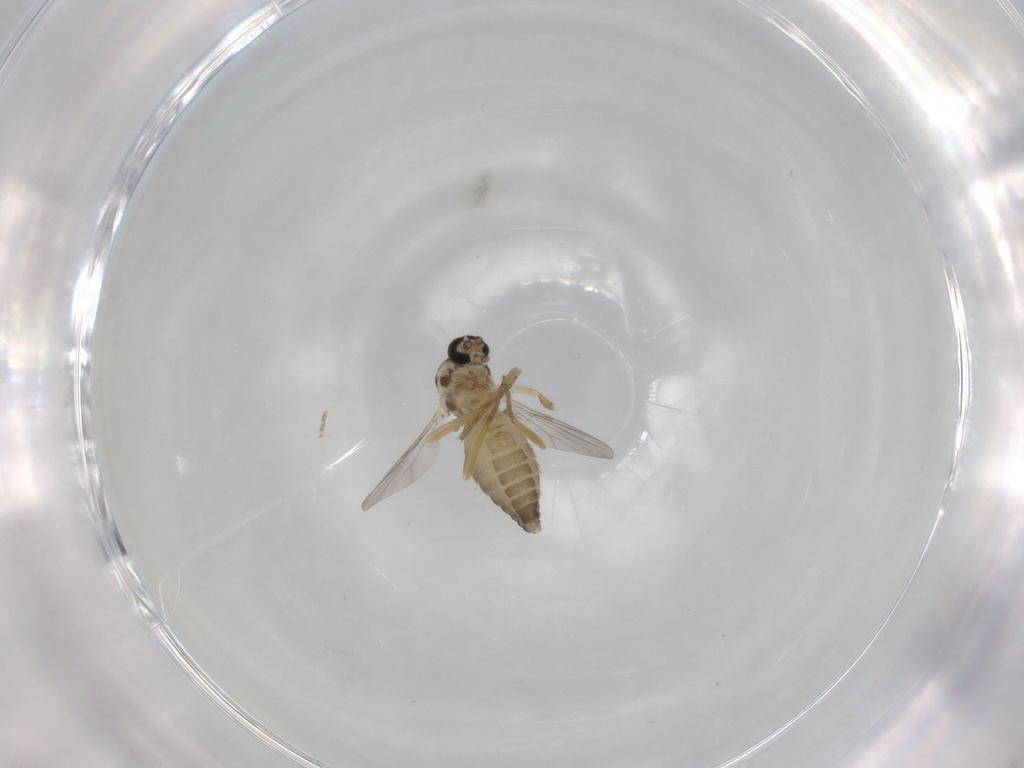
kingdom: Animalia
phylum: Arthropoda
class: Insecta
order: Diptera
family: Ceratopogonidae
